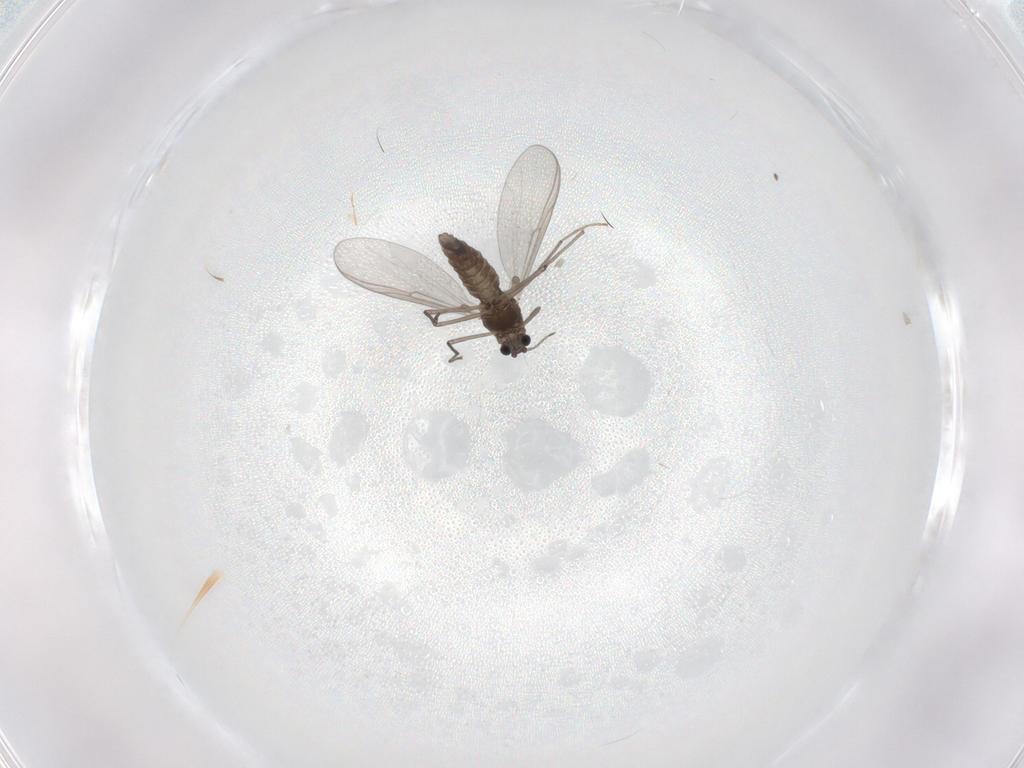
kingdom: Animalia
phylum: Arthropoda
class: Insecta
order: Diptera
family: Chironomidae
